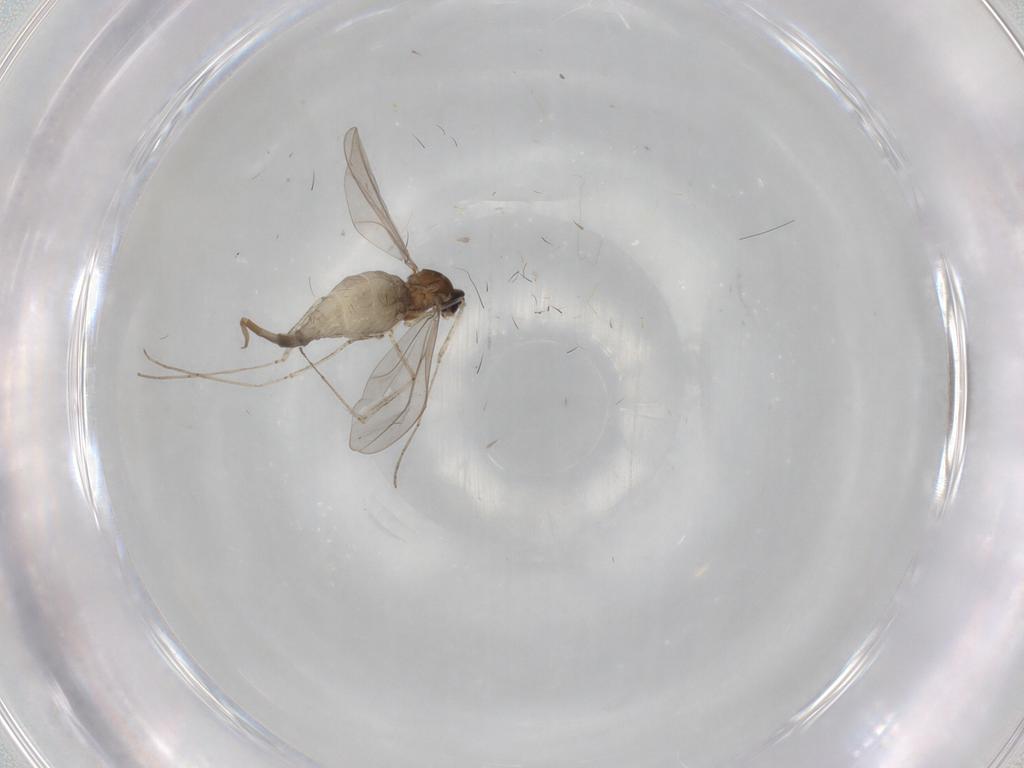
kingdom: Animalia
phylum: Arthropoda
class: Insecta
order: Diptera
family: Cecidomyiidae
